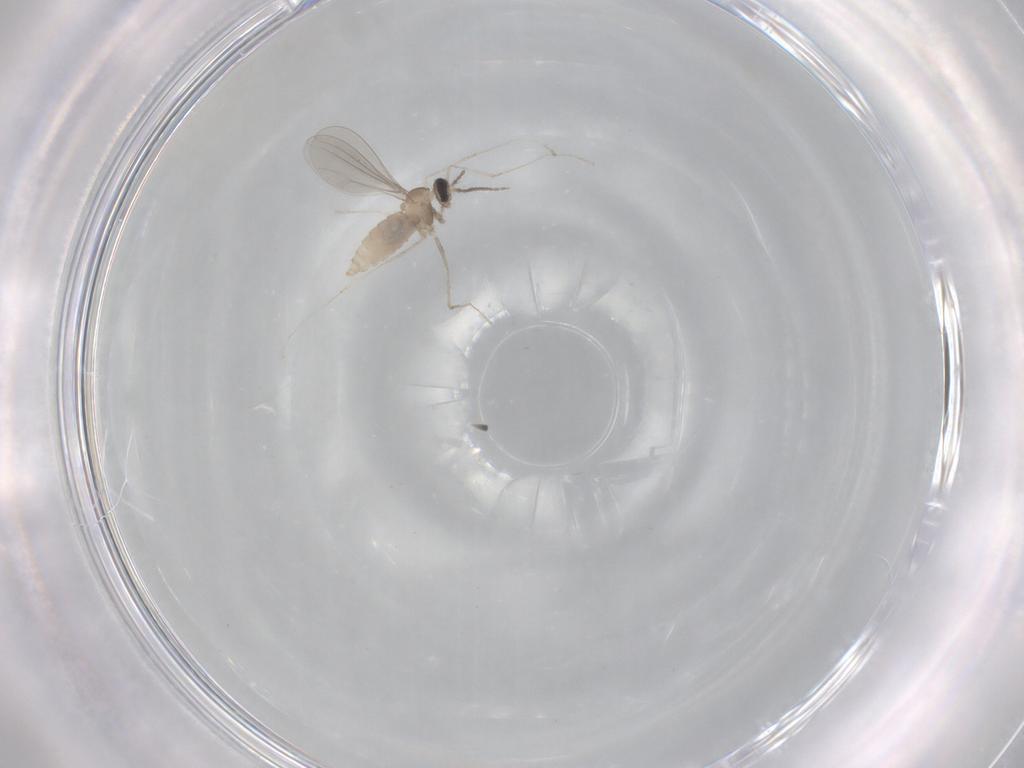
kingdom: Animalia
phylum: Arthropoda
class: Insecta
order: Diptera
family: Cecidomyiidae
